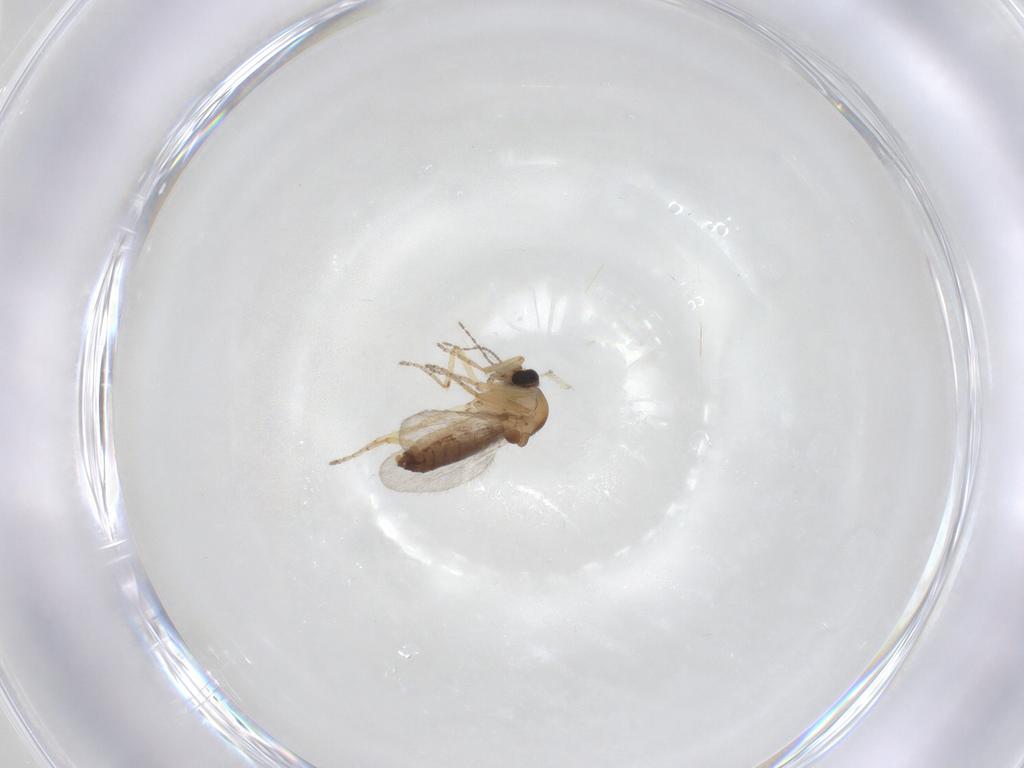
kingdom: Animalia
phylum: Arthropoda
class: Insecta
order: Diptera
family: Ceratopogonidae
